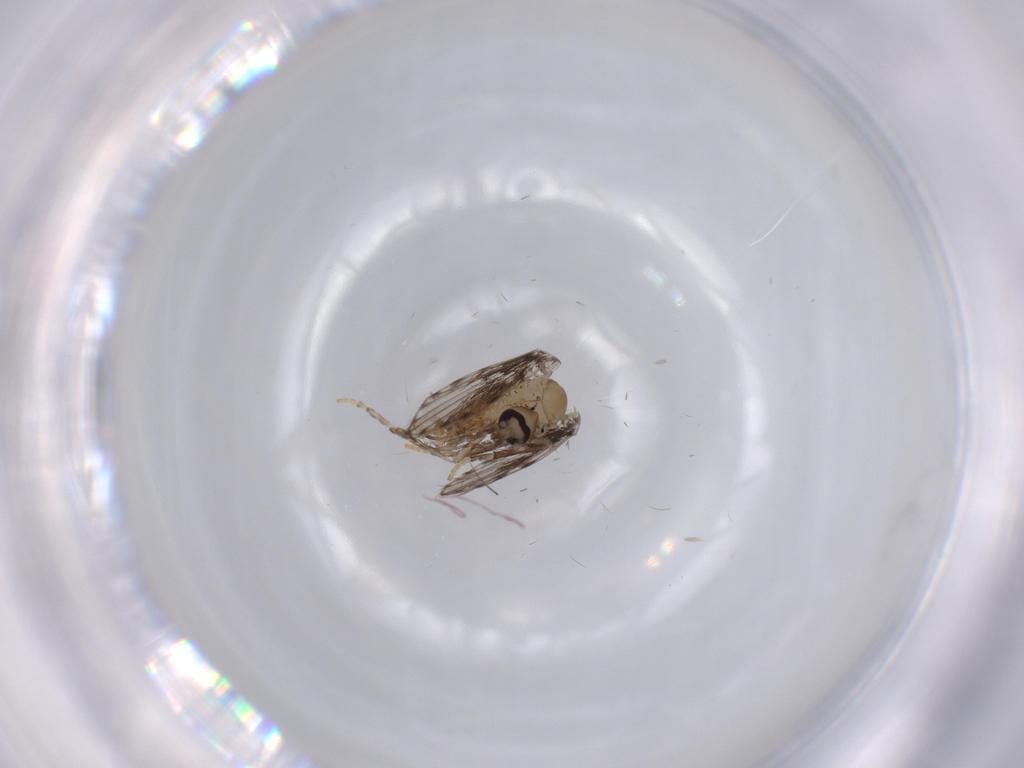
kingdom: Animalia
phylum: Arthropoda
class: Insecta
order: Diptera
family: Psychodidae
